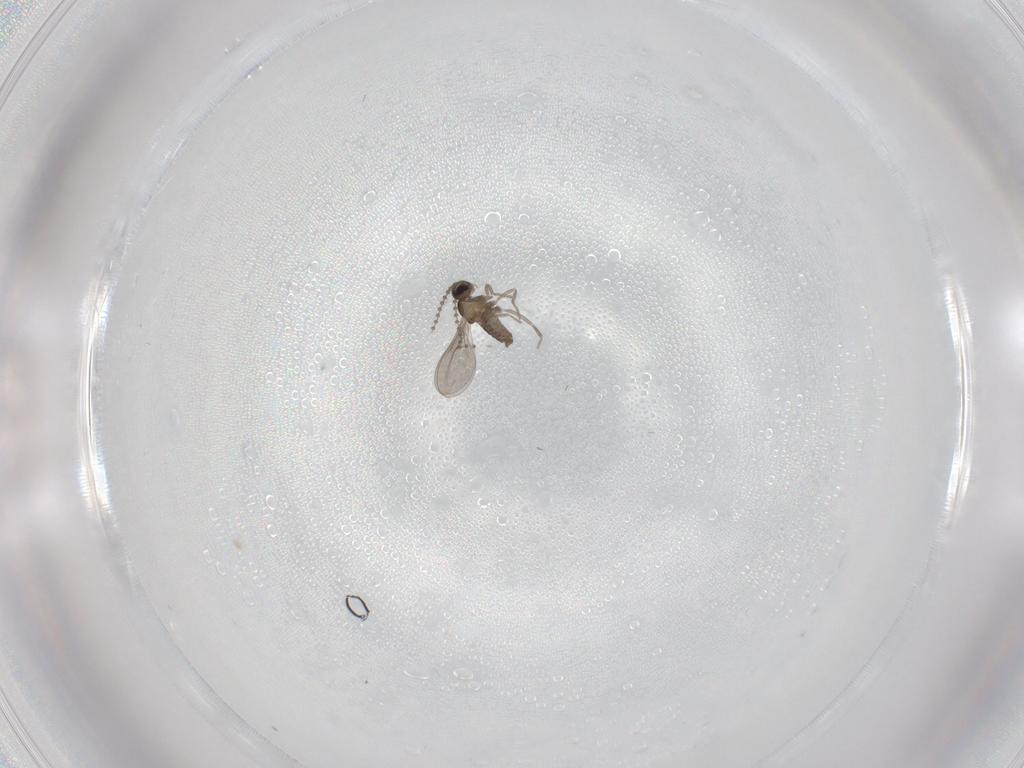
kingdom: Animalia
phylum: Arthropoda
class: Insecta
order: Diptera
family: Cecidomyiidae
